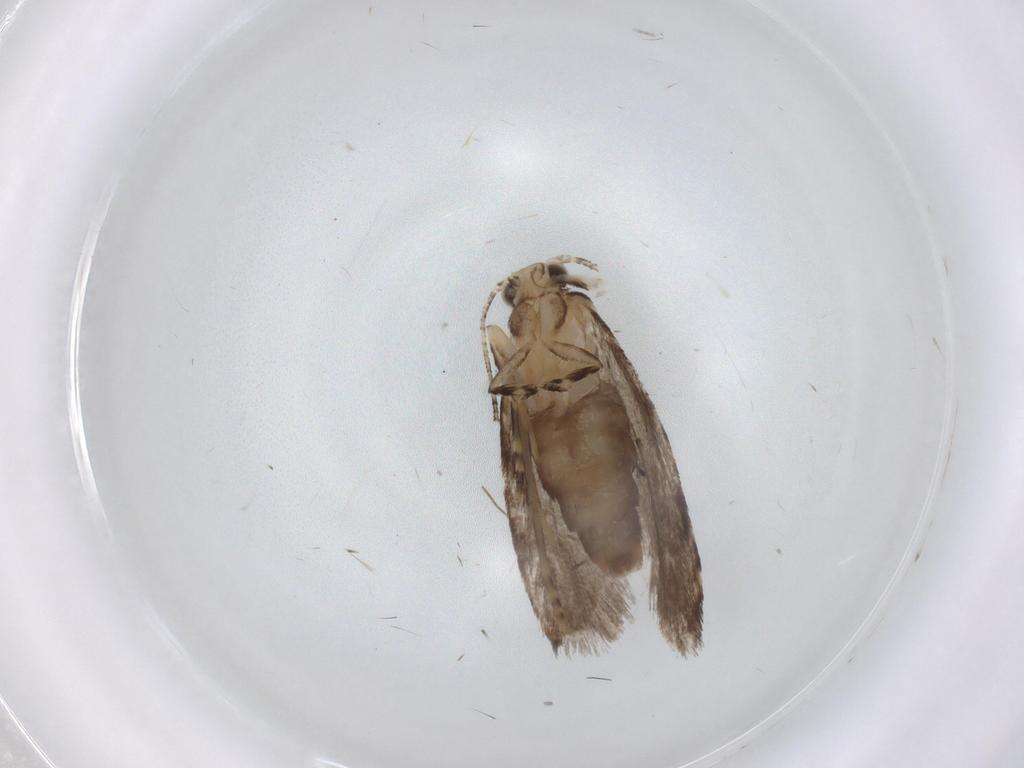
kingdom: Animalia
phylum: Arthropoda
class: Insecta
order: Lepidoptera
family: Tineidae
